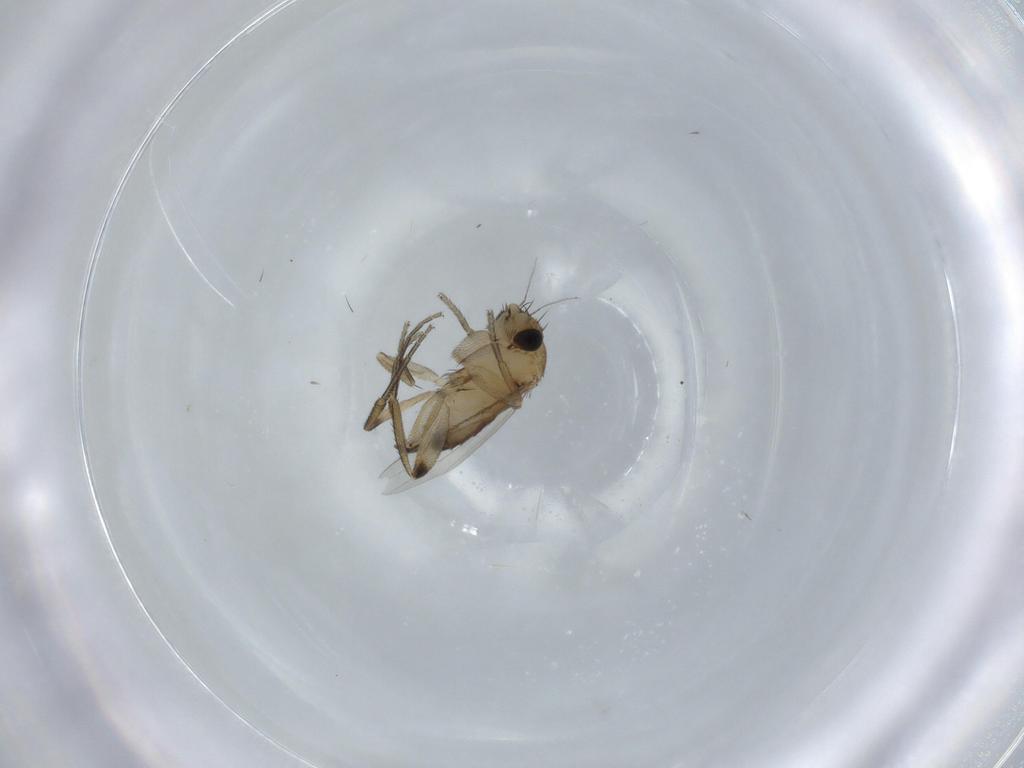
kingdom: Animalia
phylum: Arthropoda
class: Insecta
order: Diptera
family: Phoridae
